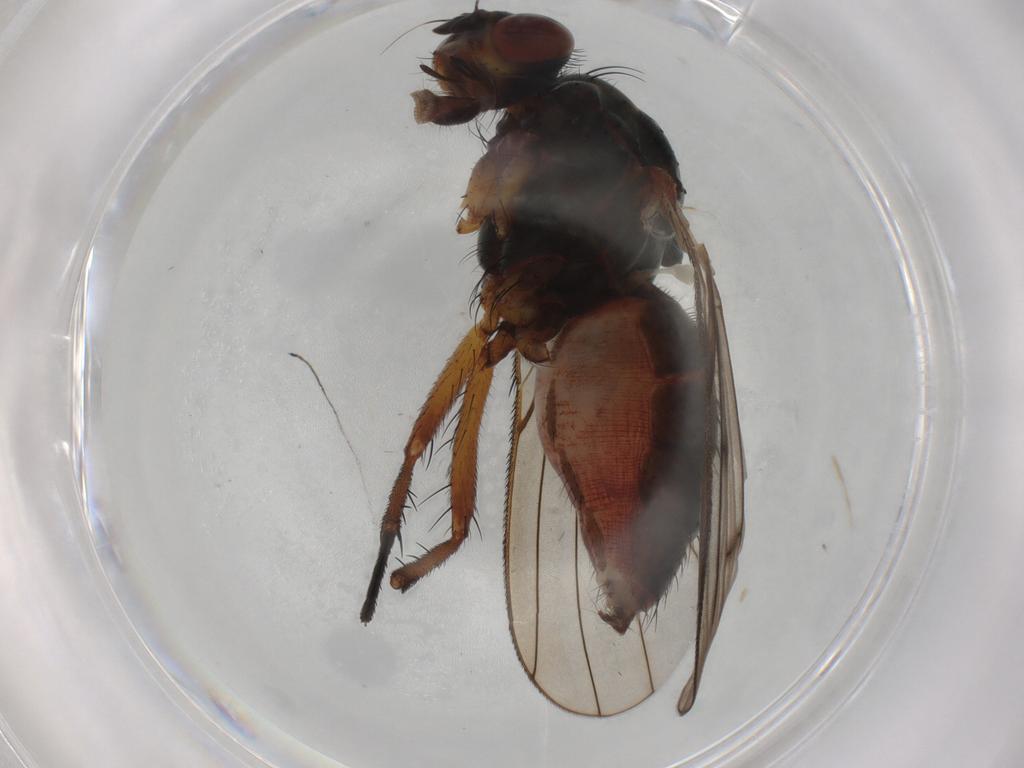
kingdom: Animalia
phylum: Arthropoda
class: Insecta
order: Diptera
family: Anthomyiidae
